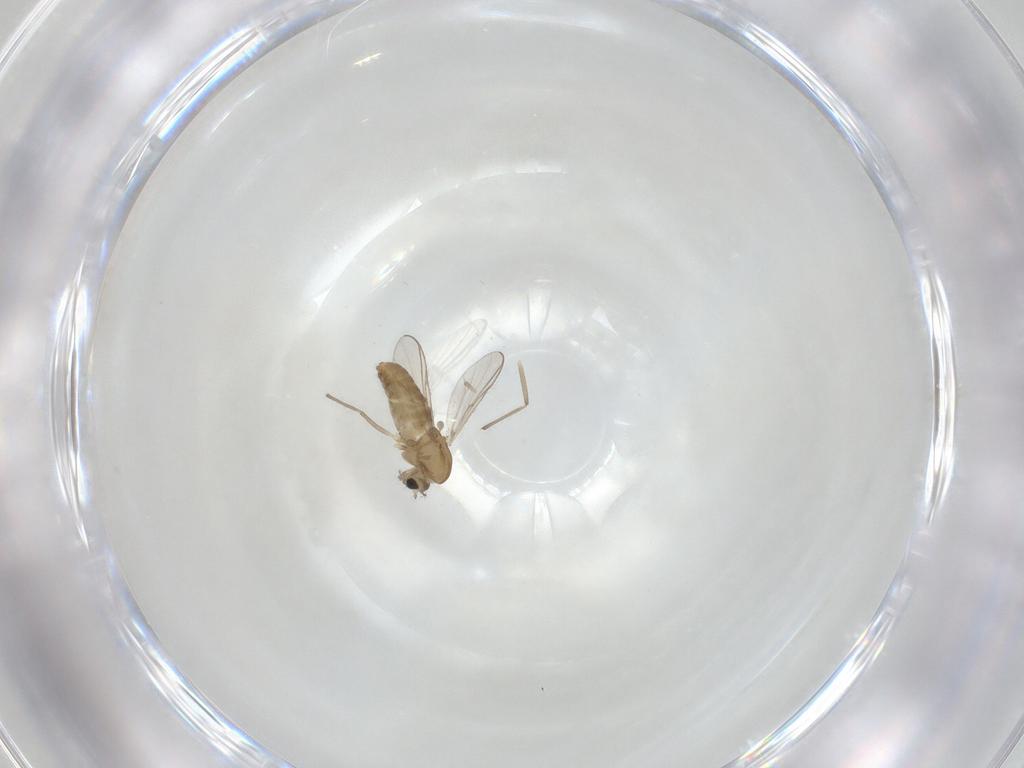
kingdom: Animalia
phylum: Arthropoda
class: Insecta
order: Diptera
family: Chironomidae
